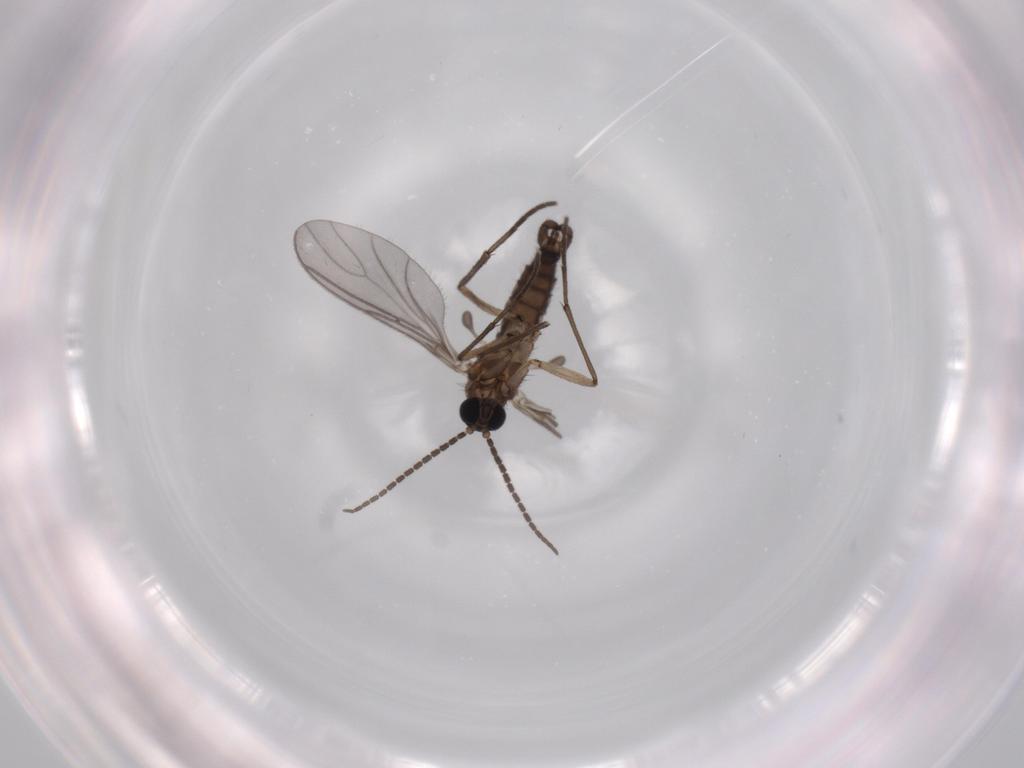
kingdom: Animalia
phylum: Arthropoda
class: Insecta
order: Diptera
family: Sciaridae
